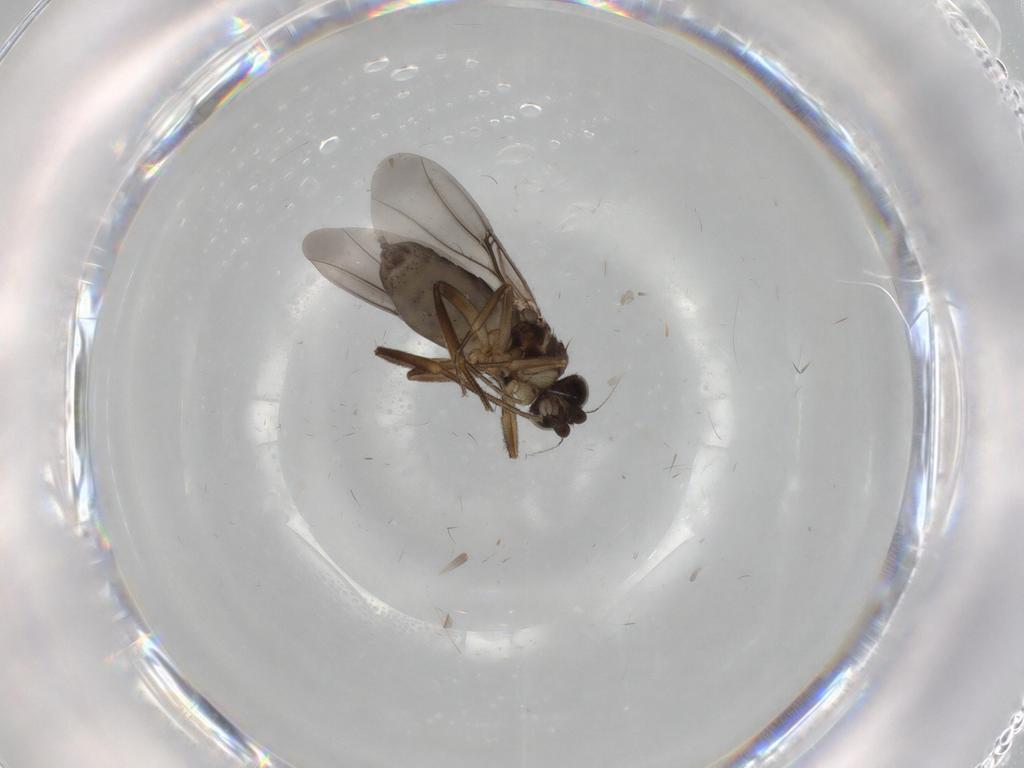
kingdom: Animalia
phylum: Arthropoda
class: Insecta
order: Diptera
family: Phoridae
